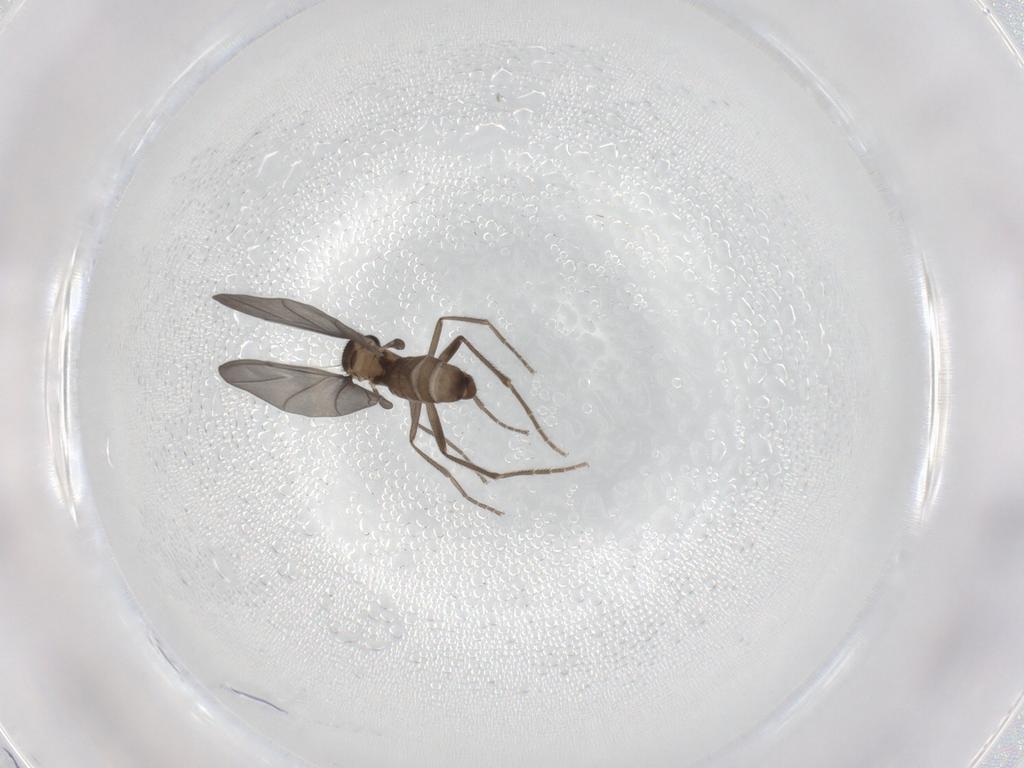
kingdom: Animalia
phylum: Arthropoda
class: Insecta
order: Diptera
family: Phoridae
